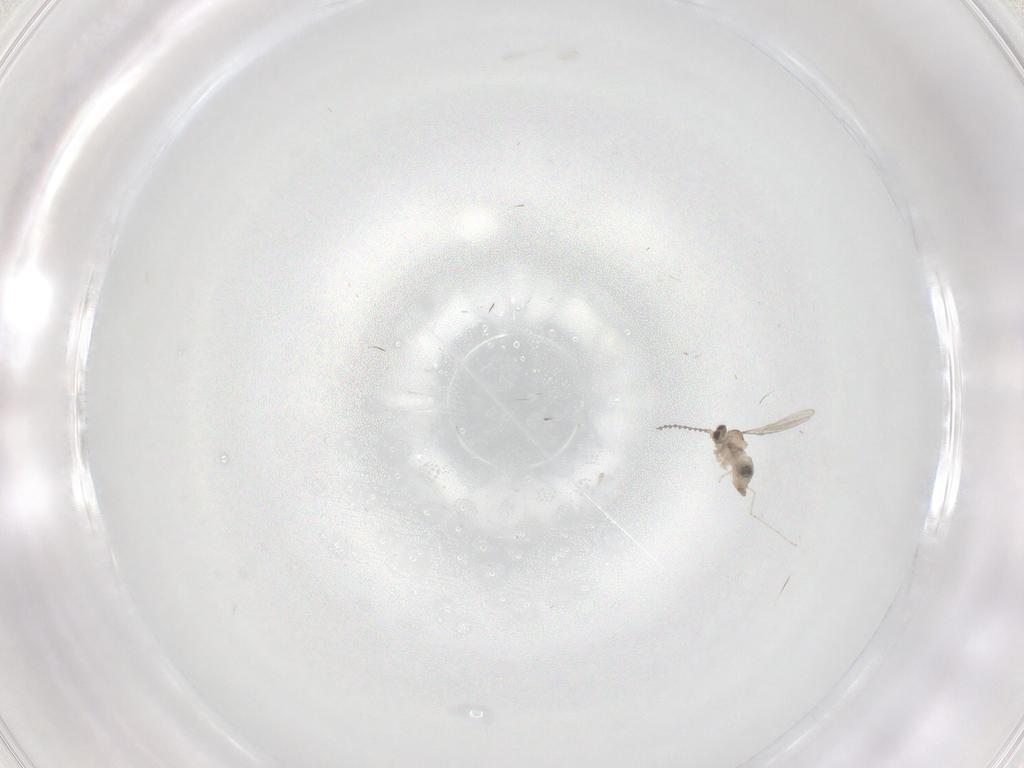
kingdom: Animalia
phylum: Arthropoda
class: Insecta
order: Diptera
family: Cecidomyiidae
